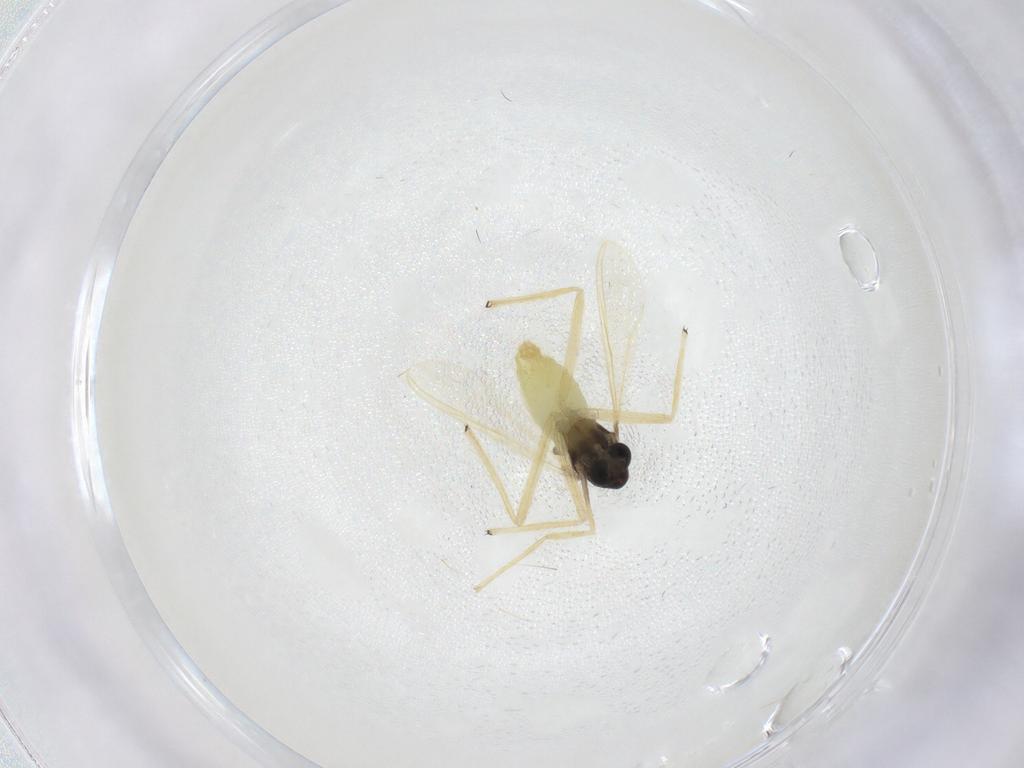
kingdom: Animalia
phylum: Arthropoda
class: Insecta
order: Diptera
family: Chironomidae
